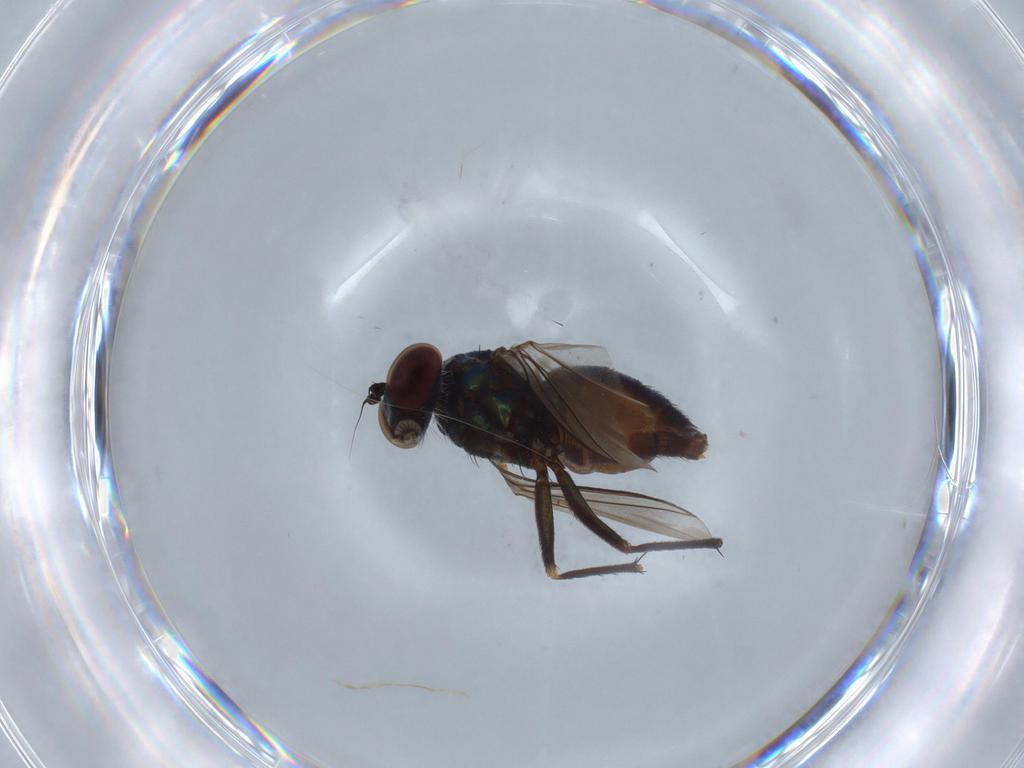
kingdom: Animalia
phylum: Arthropoda
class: Insecta
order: Diptera
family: Dolichopodidae
